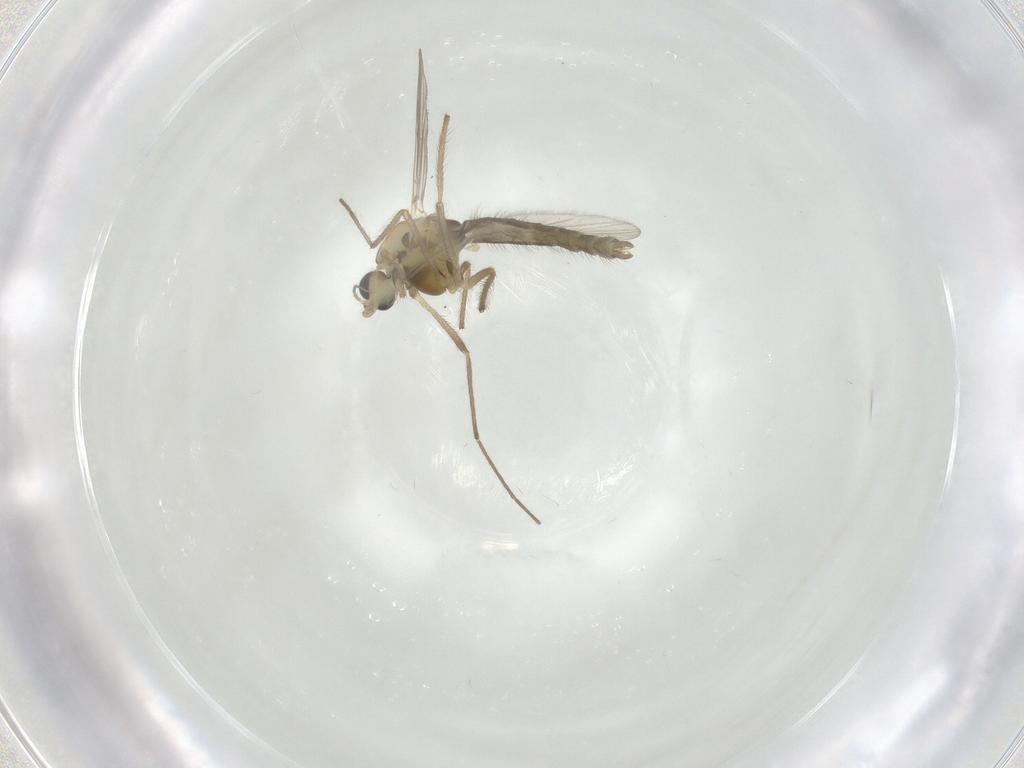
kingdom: Animalia
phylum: Arthropoda
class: Insecta
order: Diptera
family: Chironomidae
